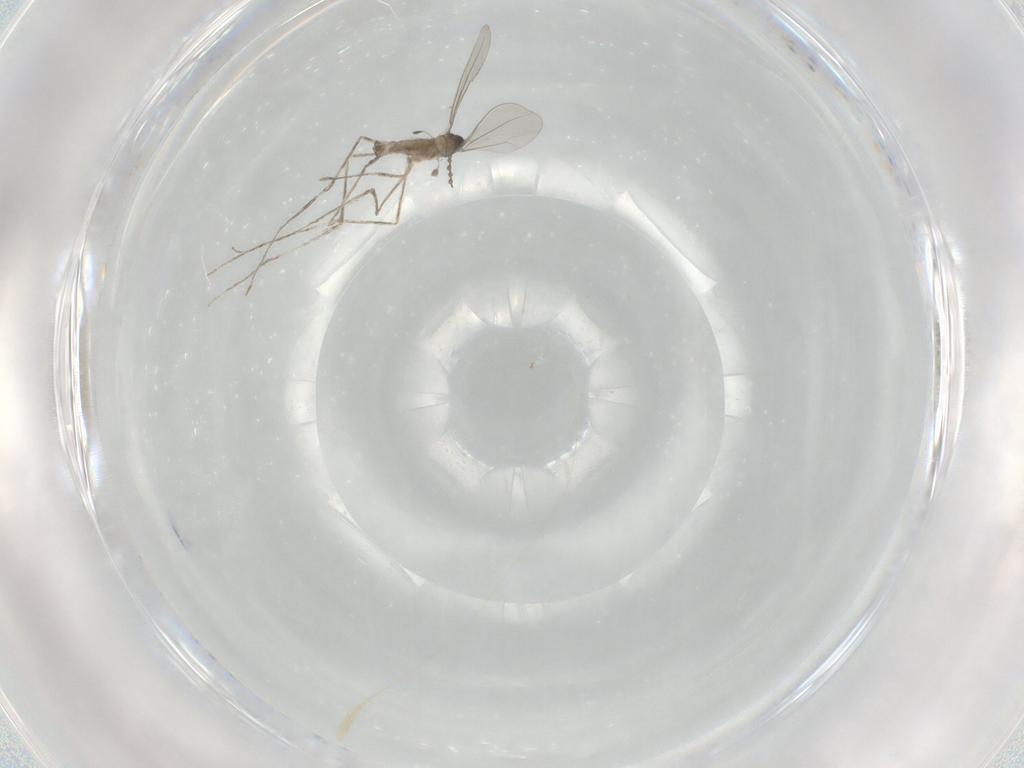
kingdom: Animalia
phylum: Arthropoda
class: Insecta
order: Diptera
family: Cecidomyiidae
